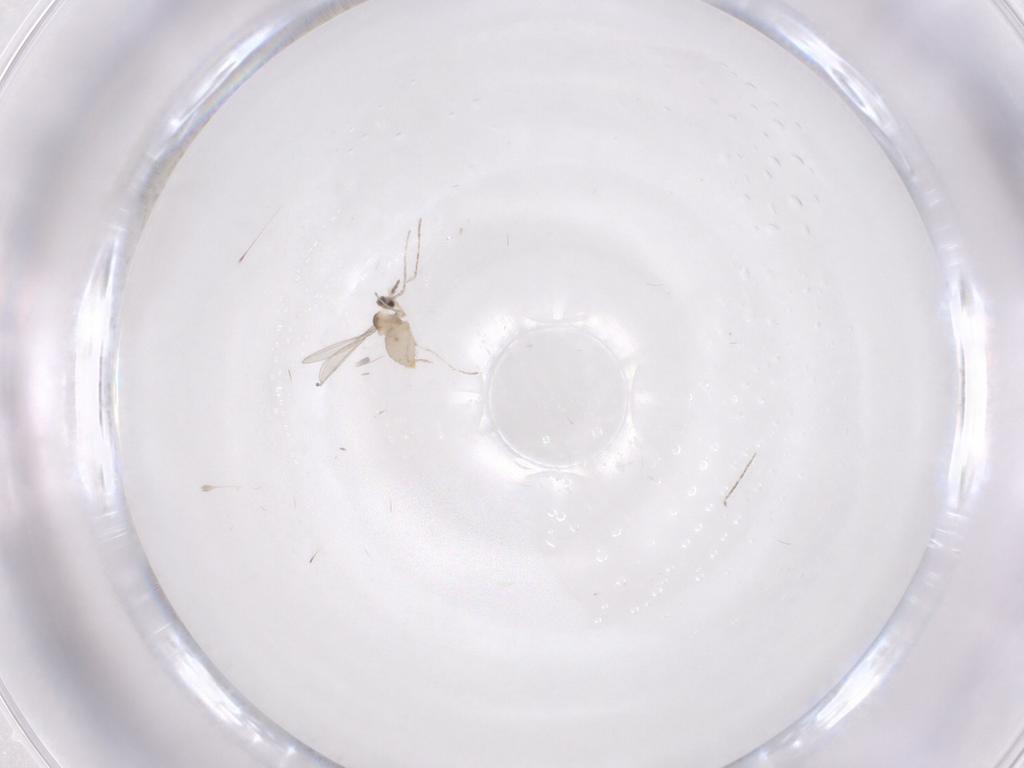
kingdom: Animalia
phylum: Arthropoda
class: Insecta
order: Diptera
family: Cecidomyiidae
